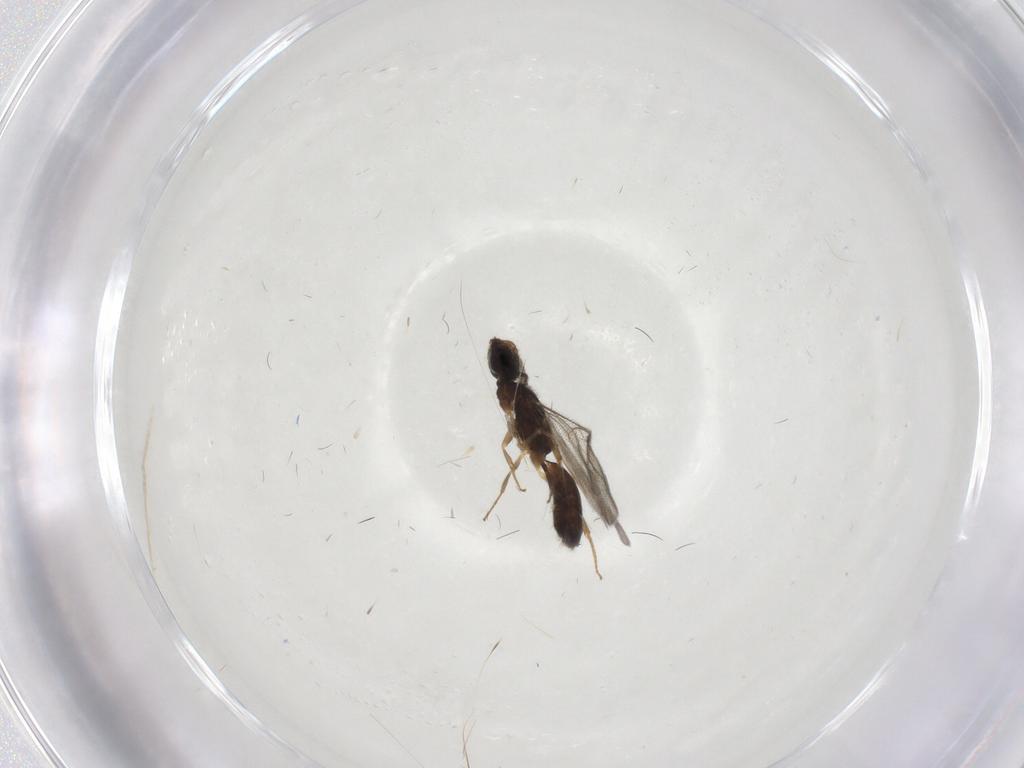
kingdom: Animalia
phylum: Arthropoda
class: Insecta
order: Hymenoptera
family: Bethylidae
